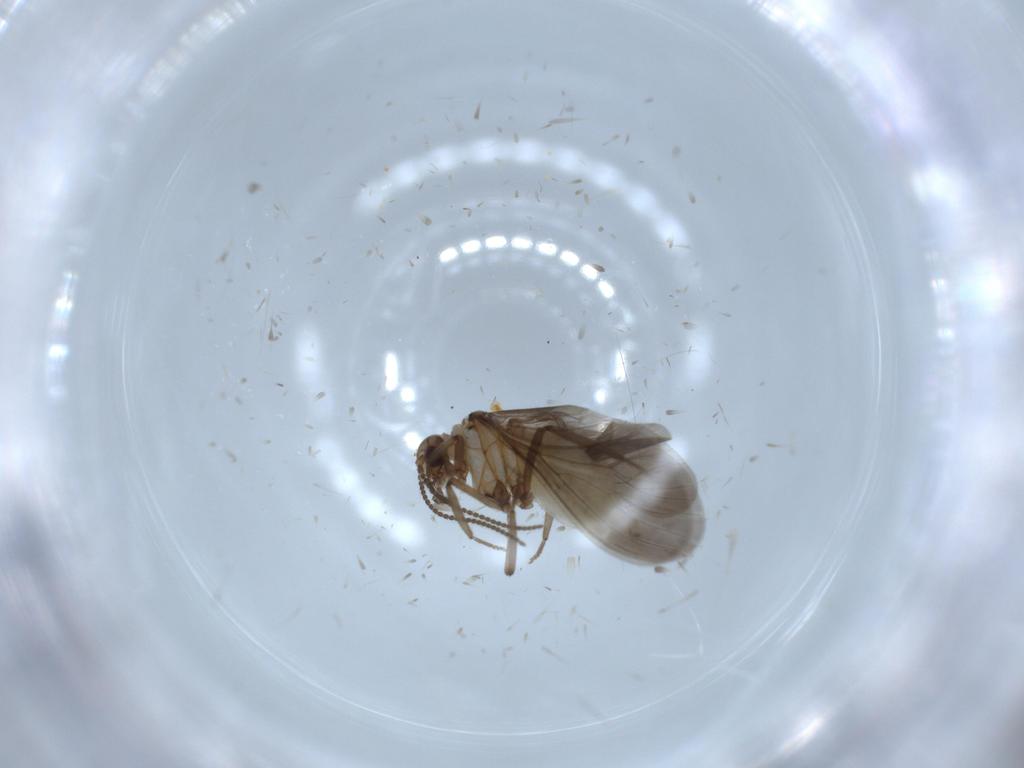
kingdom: Animalia
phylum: Arthropoda
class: Insecta
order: Neuroptera
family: Coniopterygidae
